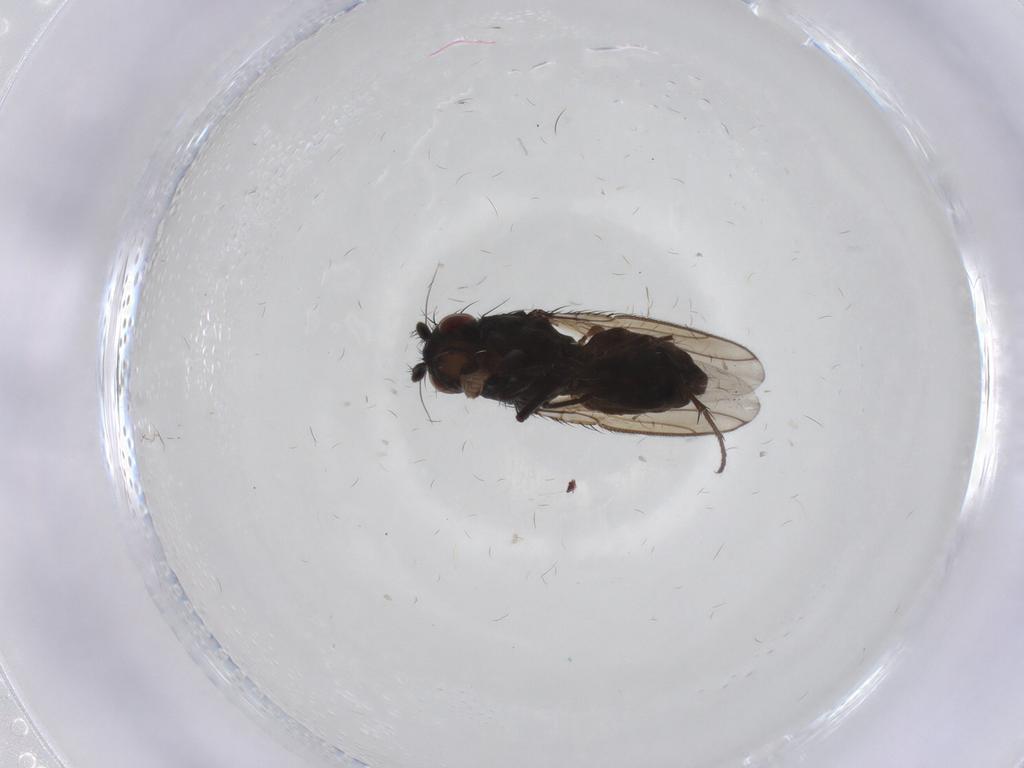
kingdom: Animalia
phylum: Arthropoda
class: Insecta
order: Diptera
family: Sphaeroceridae
